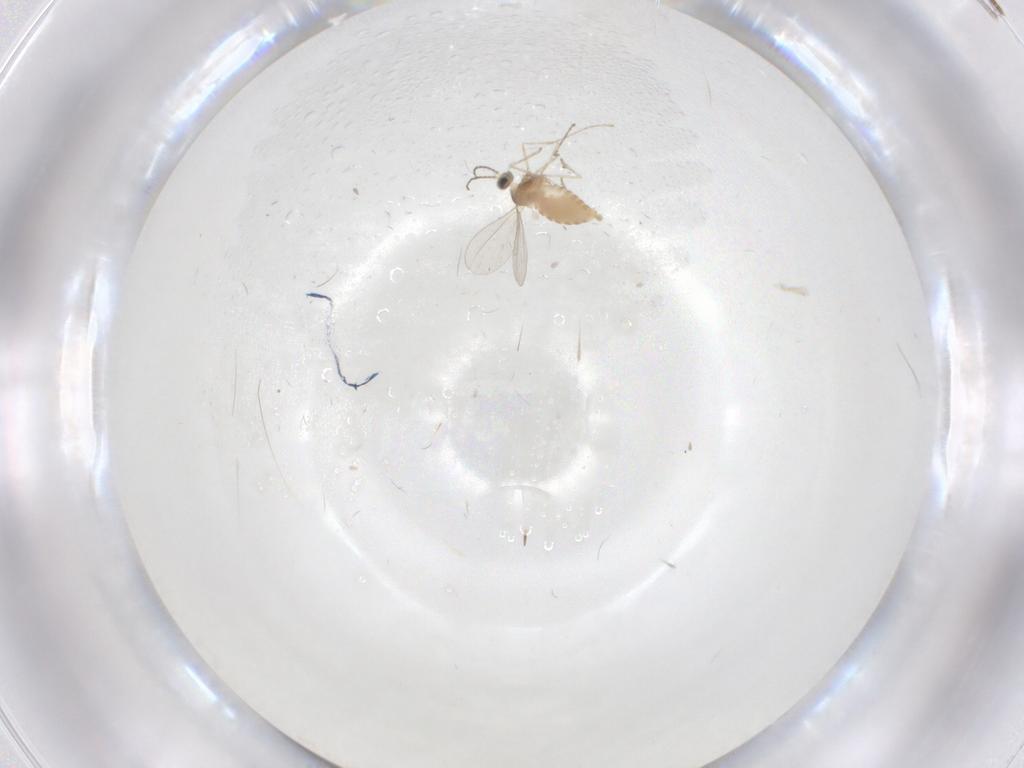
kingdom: Animalia
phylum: Arthropoda
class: Insecta
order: Diptera
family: Cecidomyiidae
